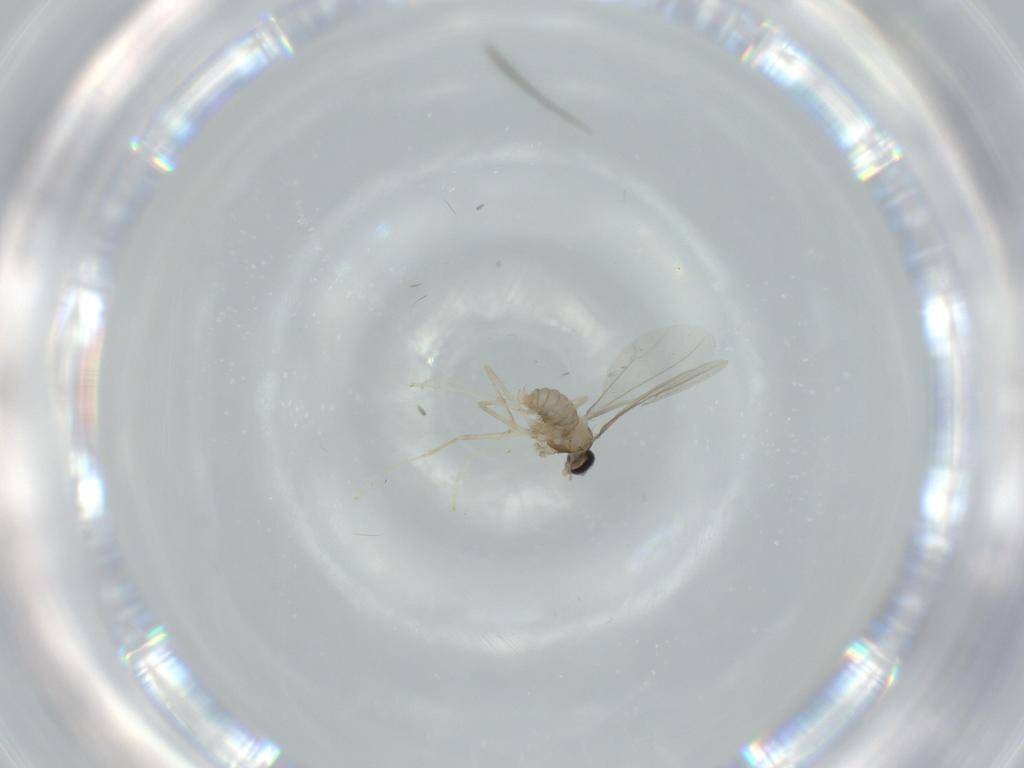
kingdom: Animalia
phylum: Arthropoda
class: Insecta
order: Diptera
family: Cecidomyiidae
